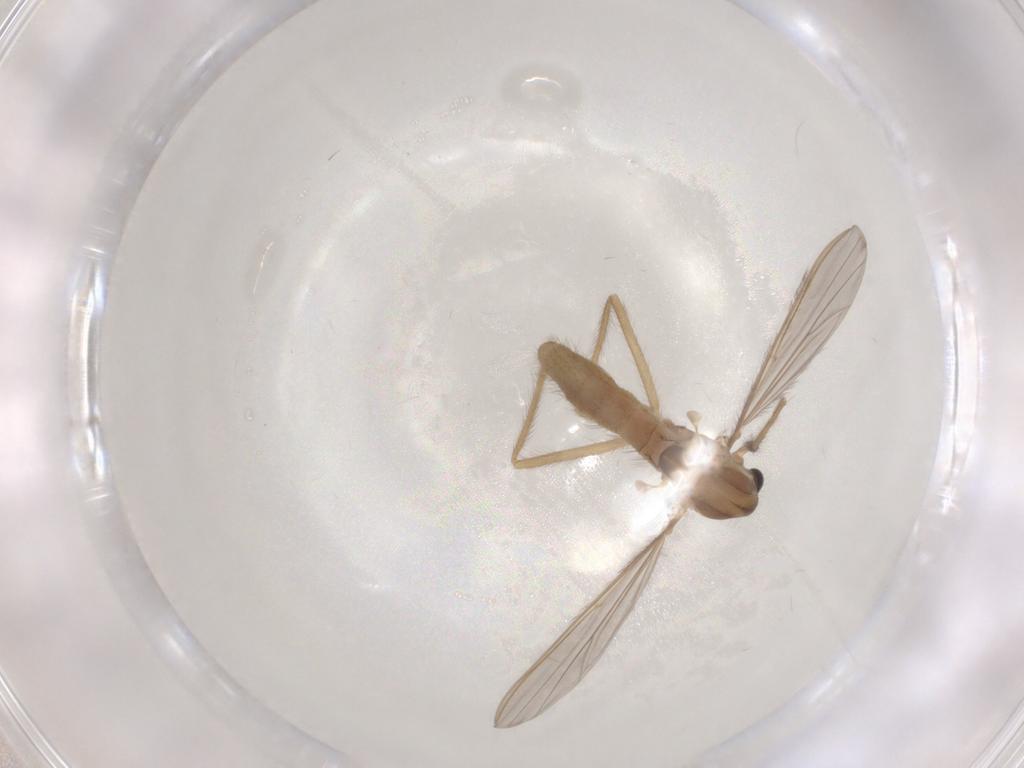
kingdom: Animalia
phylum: Arthropoda
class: Insecta
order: Diptera
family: Chironomidae
